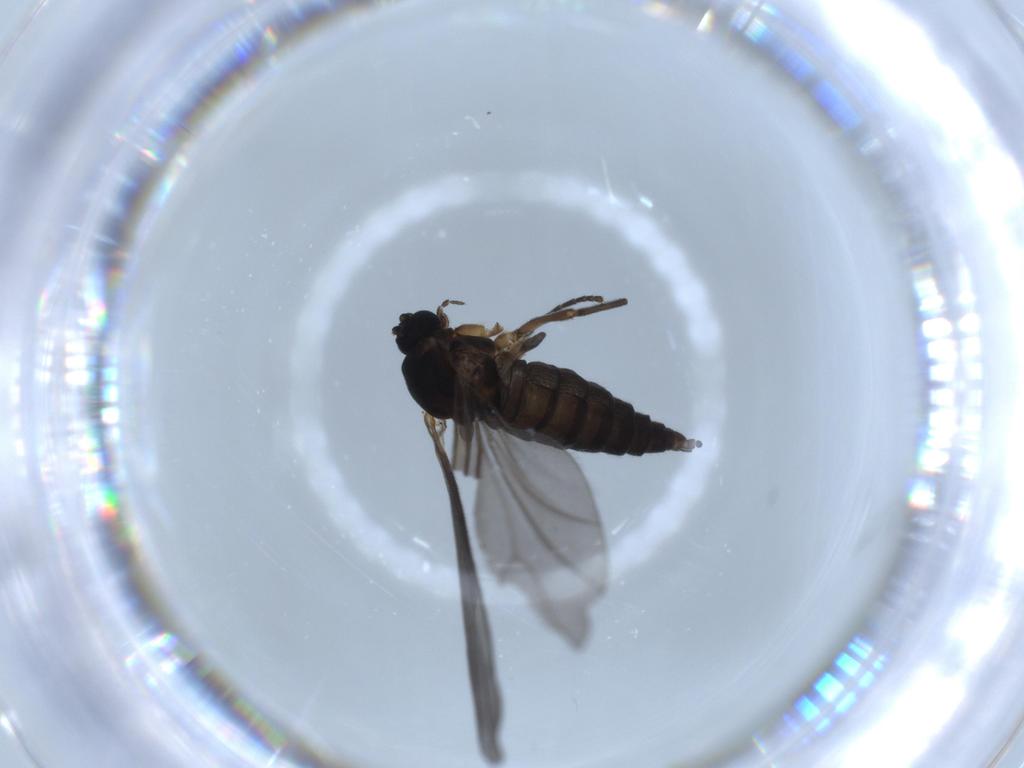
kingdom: Animalia
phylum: Arthropoda
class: Insecta
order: Diptera
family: Sciaridae
